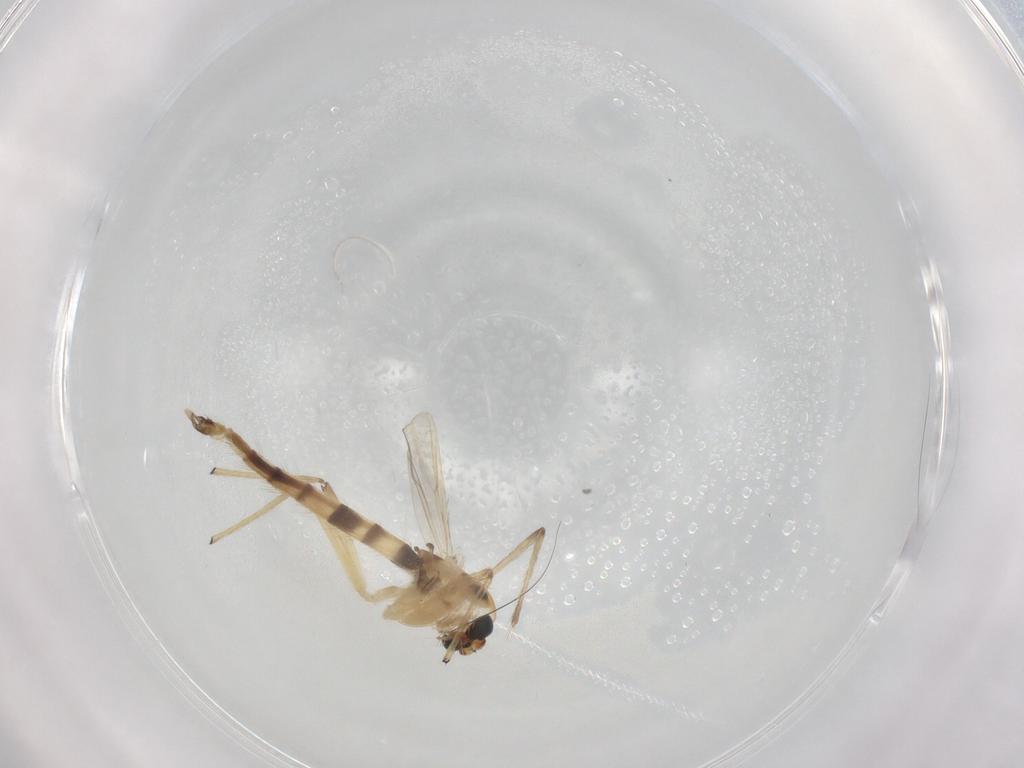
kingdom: Animalia
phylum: Arthropoda
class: Insecta
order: Diptera
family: Chironomidae
